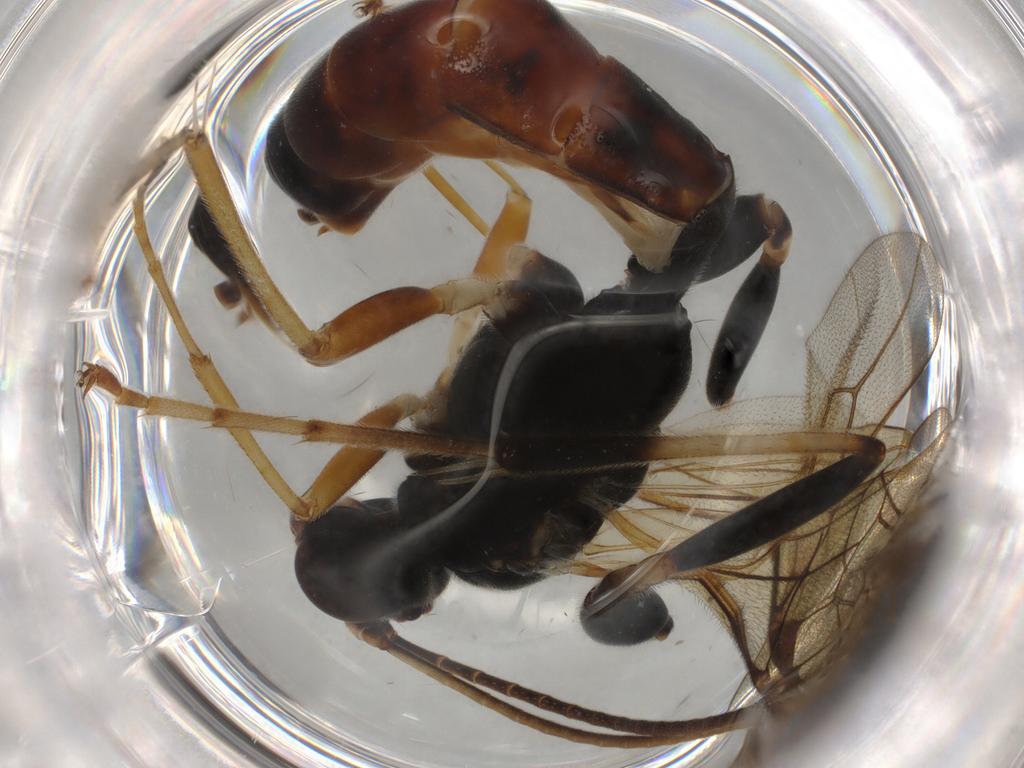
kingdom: Animalia
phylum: Arthropoda
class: Insecta
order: Hymenoptera
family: Ichneumonidae
